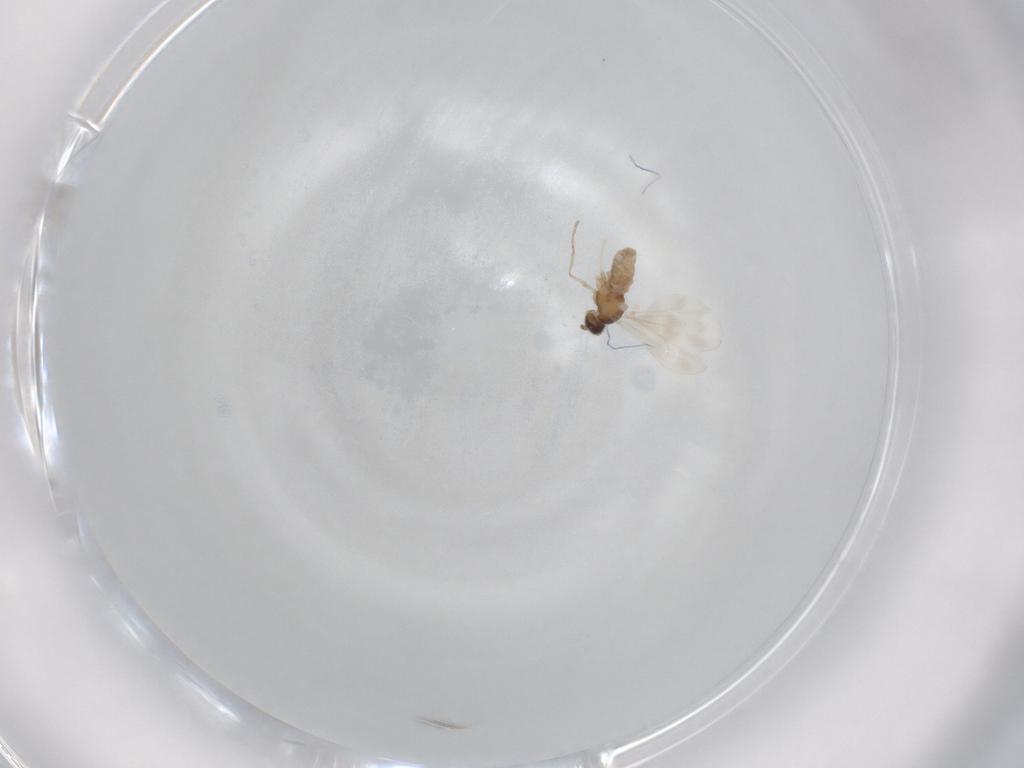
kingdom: Animalia
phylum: Arthropoda
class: Insecta
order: Diptera
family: Cecidomyiidae
